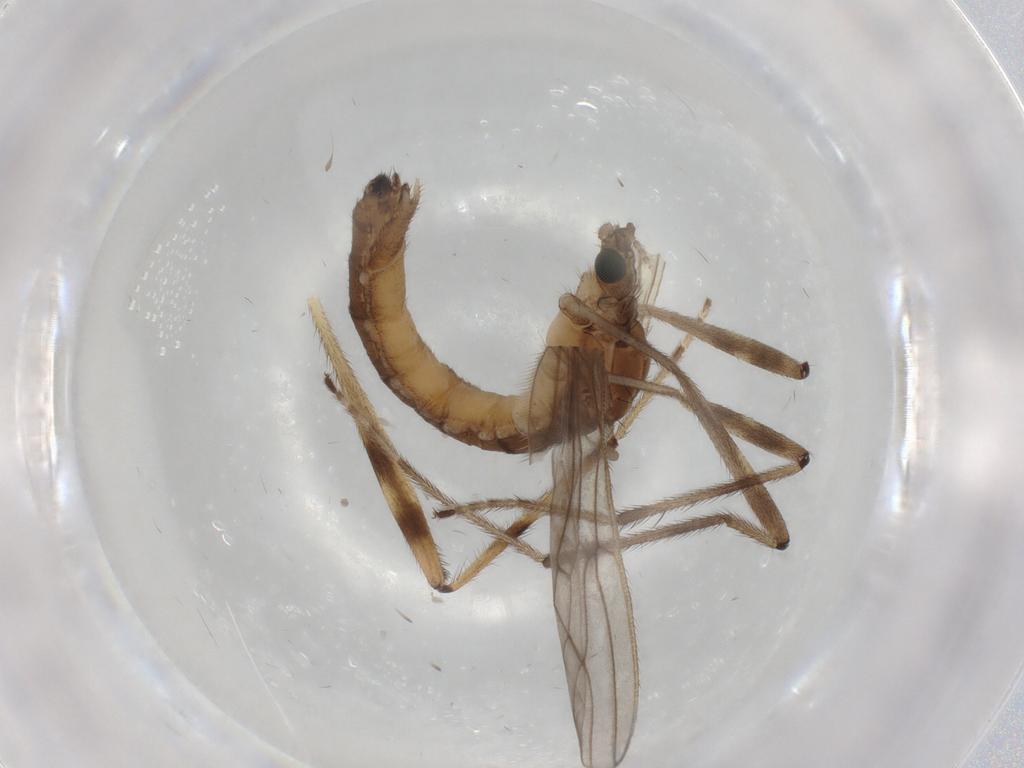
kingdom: Animalia
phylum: Arthropoda
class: Insecta
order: Diptera
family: Limoniidae
